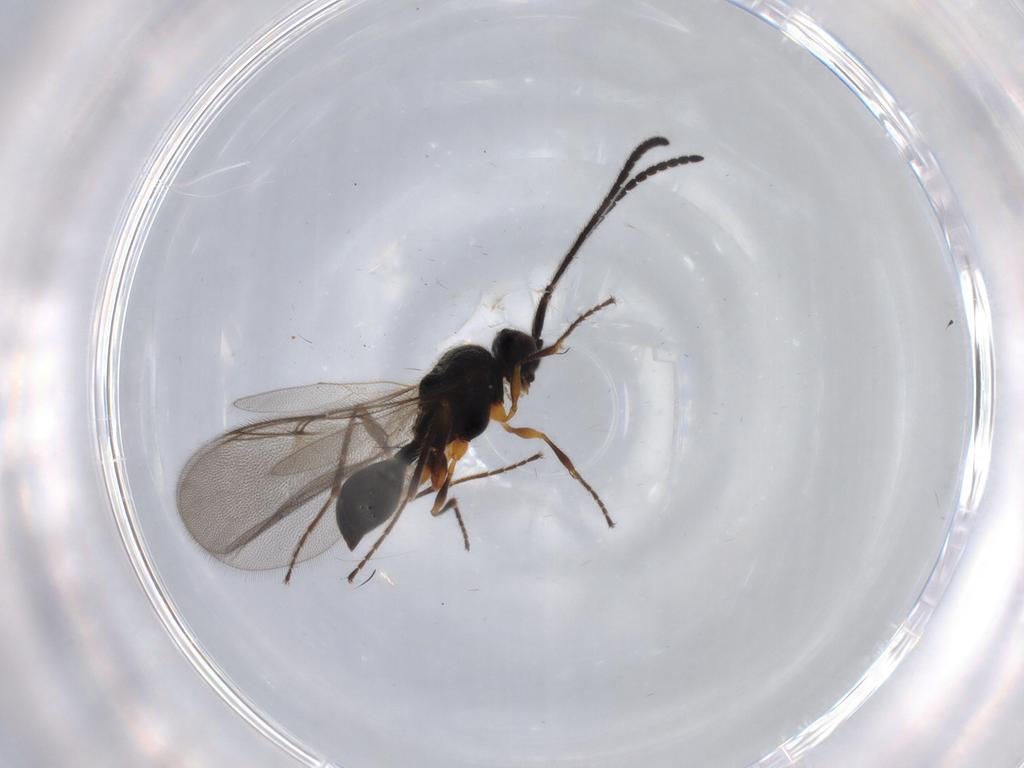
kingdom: Animalia
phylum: Arthropoda
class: Insecta
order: Hymenoptera
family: Diapriidae
